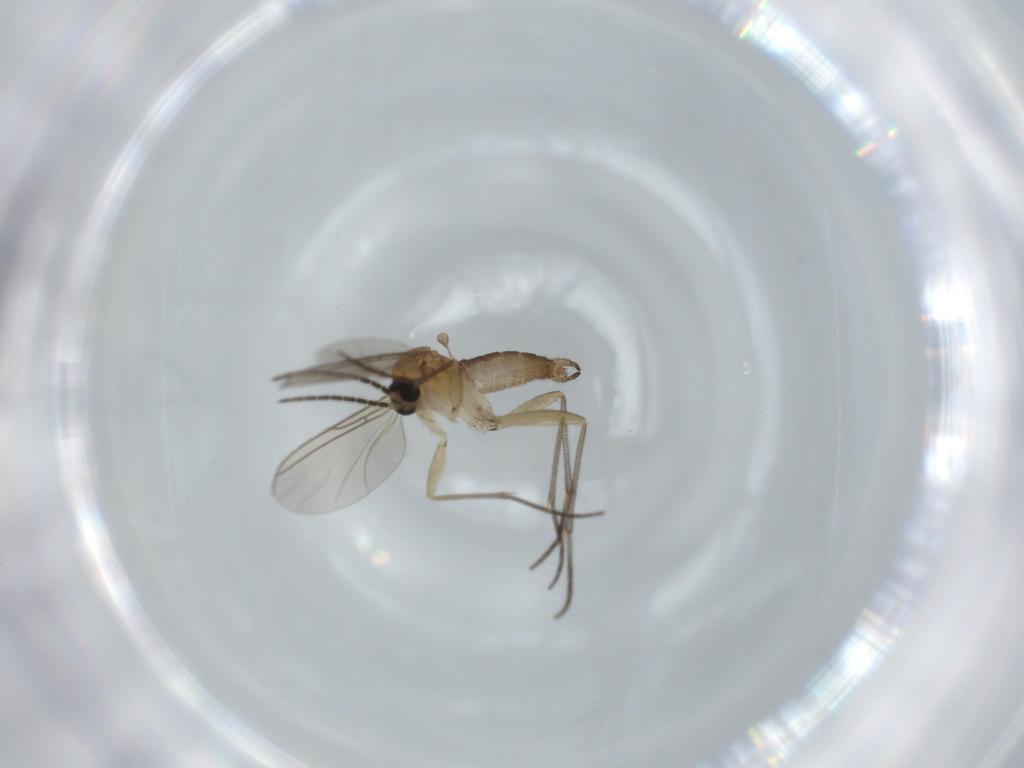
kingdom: Animalia
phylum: Arthropoda
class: Insecta
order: Diptera
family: Sciaridae
